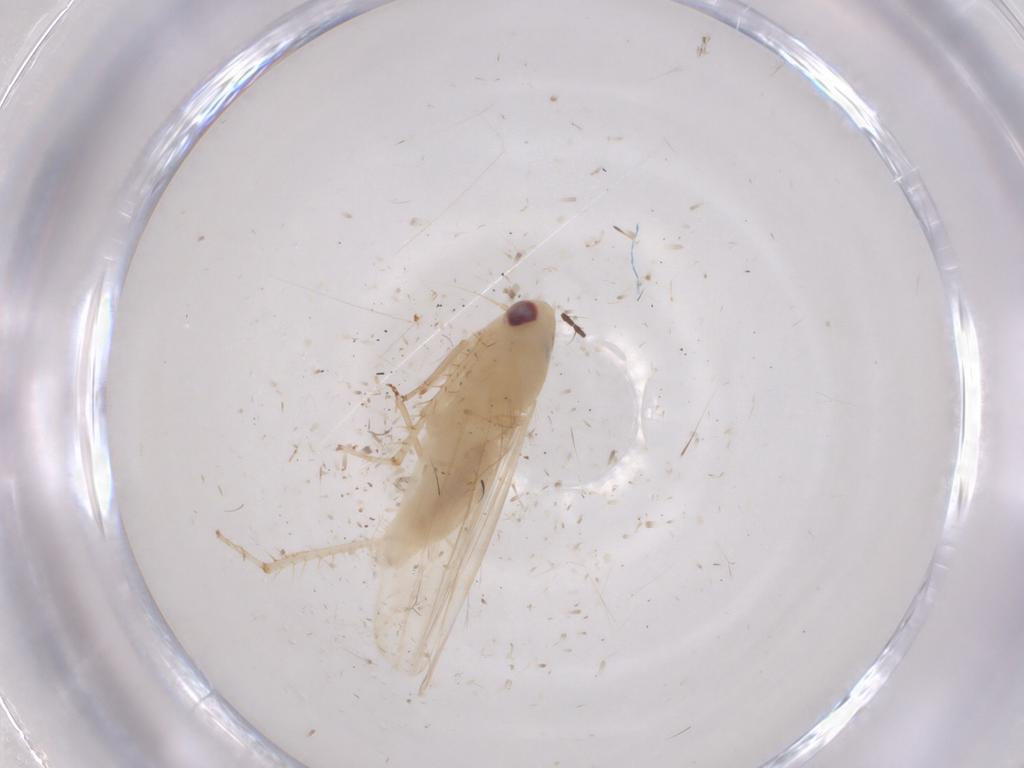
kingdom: Animalia
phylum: Arthropoda
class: Insecta
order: Hemiptera
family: Cicadellidae
